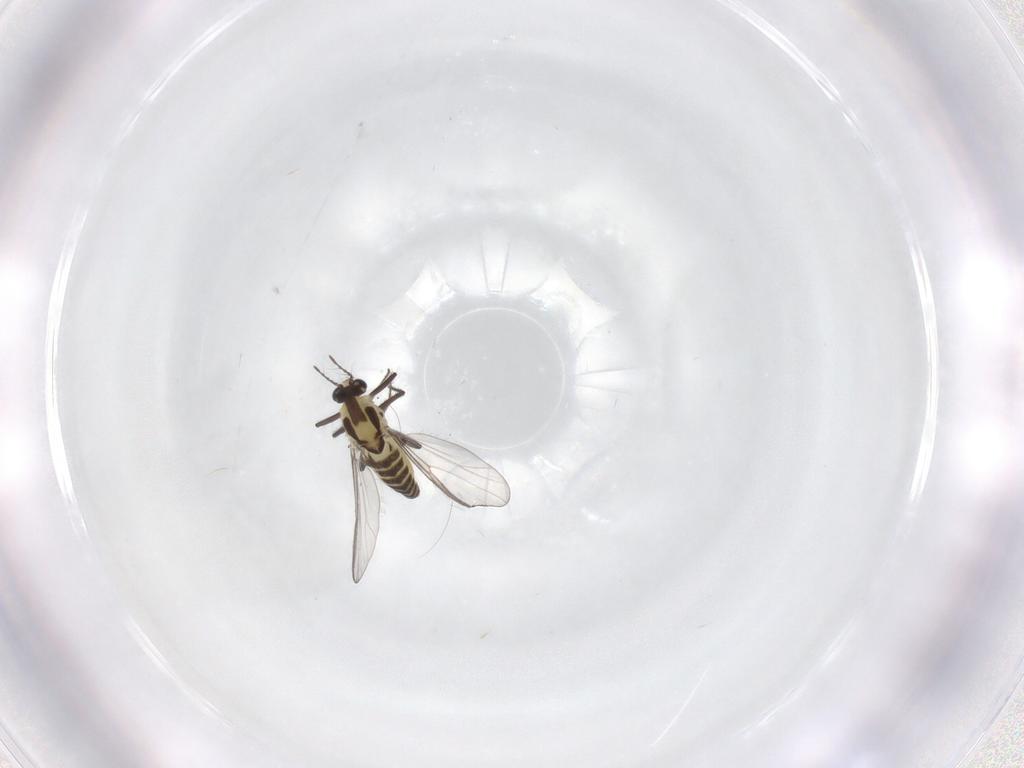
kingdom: Animalia
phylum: Arthropoda
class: Insecta
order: Diptera
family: Chironomidae
